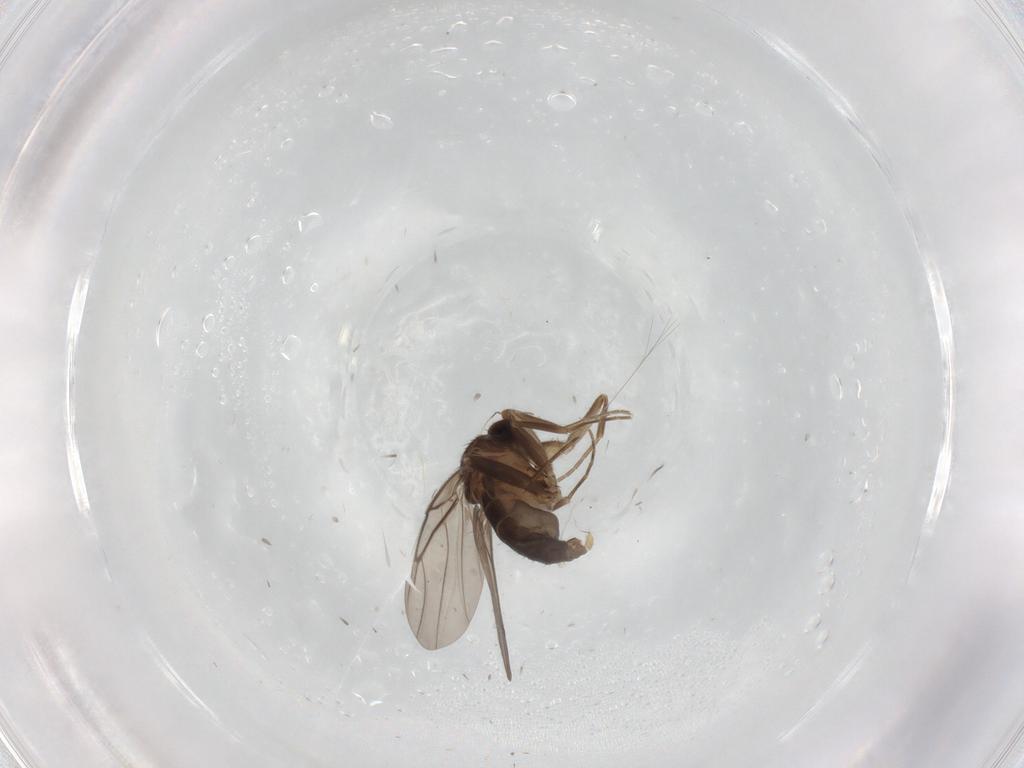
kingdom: Animalia
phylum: Arthropoda
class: Insecta
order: Diptera
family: Phoridae
